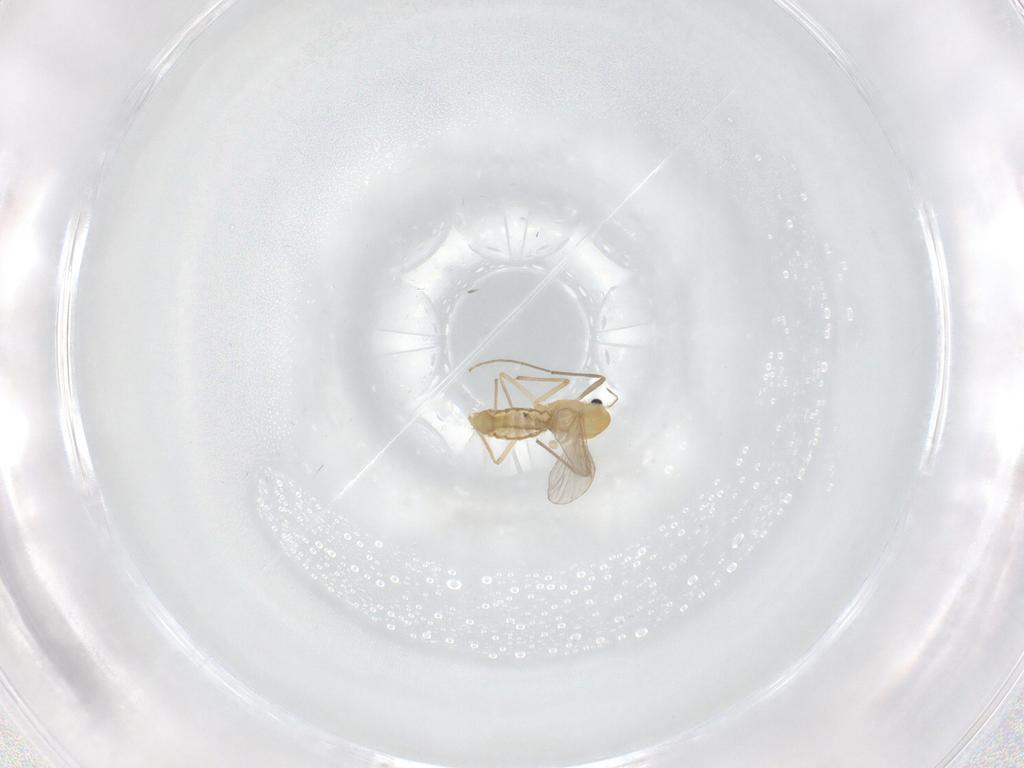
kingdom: Animalia
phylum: Arthropoda
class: Insecta
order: Diptera
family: Chironomidae
